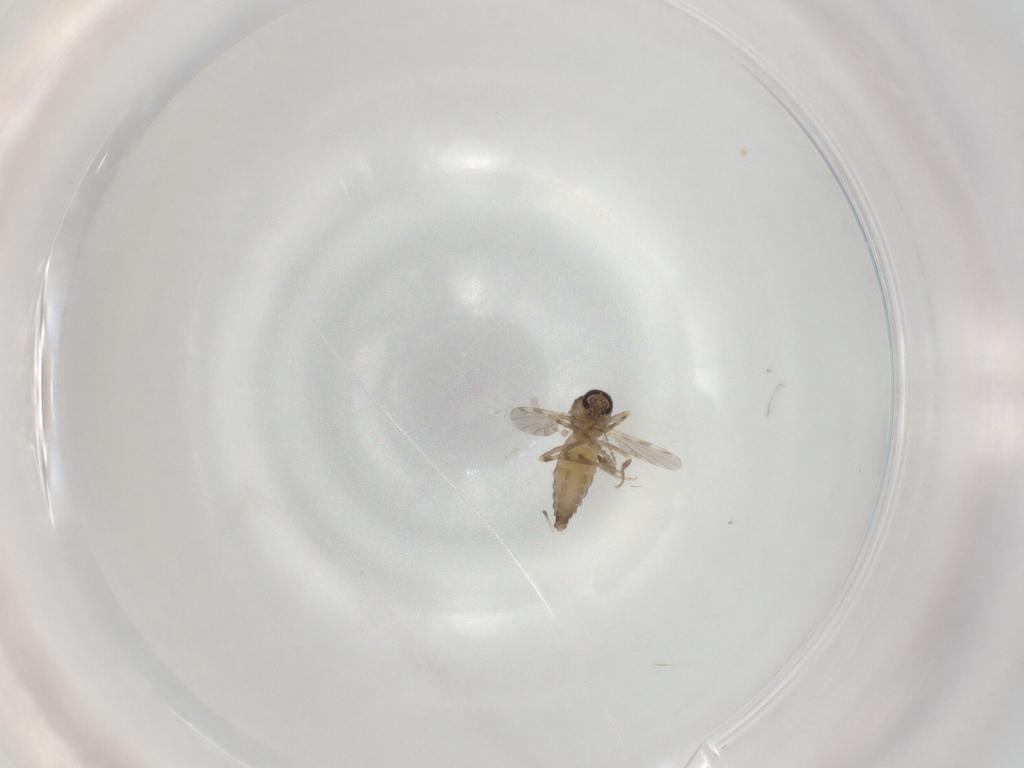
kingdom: Animalia
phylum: Arthropoda
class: Insecta
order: Diptera
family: Ceratopogonidae
